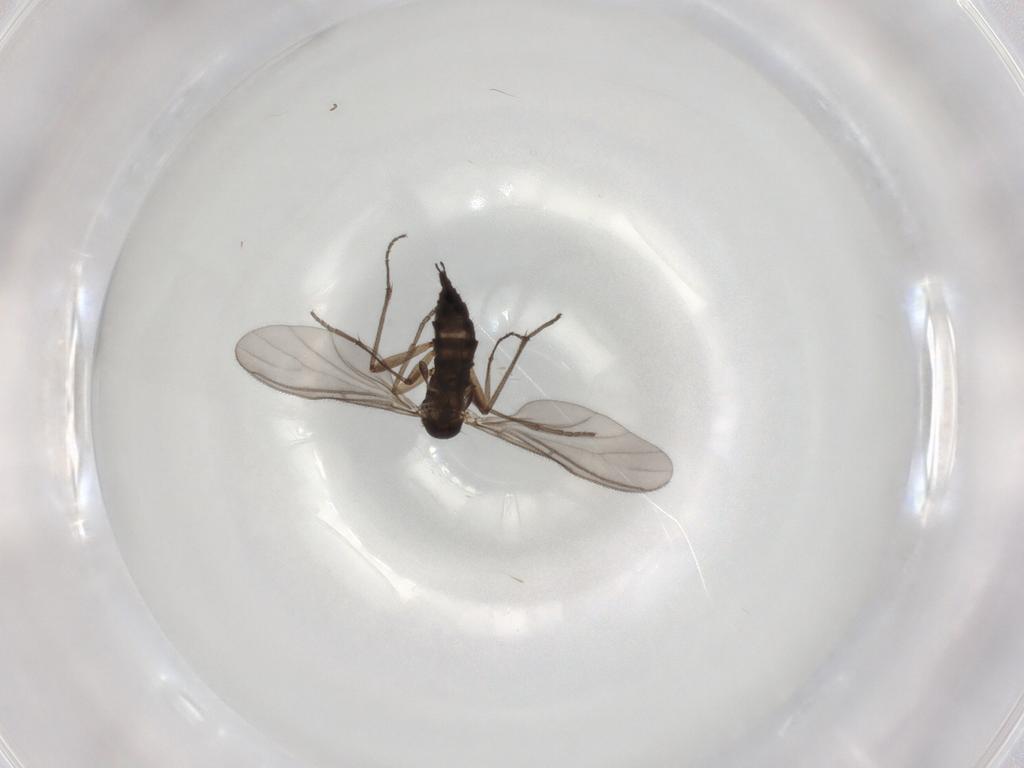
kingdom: Animalia
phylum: Arthropoda
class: Insecta
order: Diptera
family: Sciaridae
